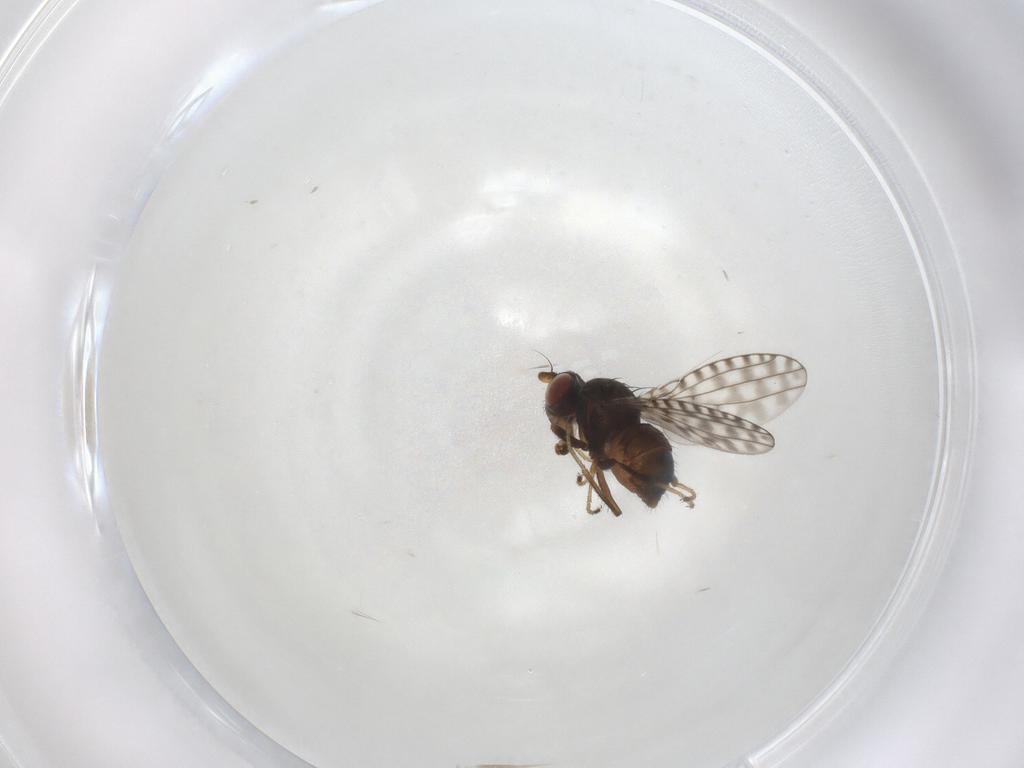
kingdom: Animalia
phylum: Arthropoda
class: Insecta
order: Diptera
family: Ephydridae
